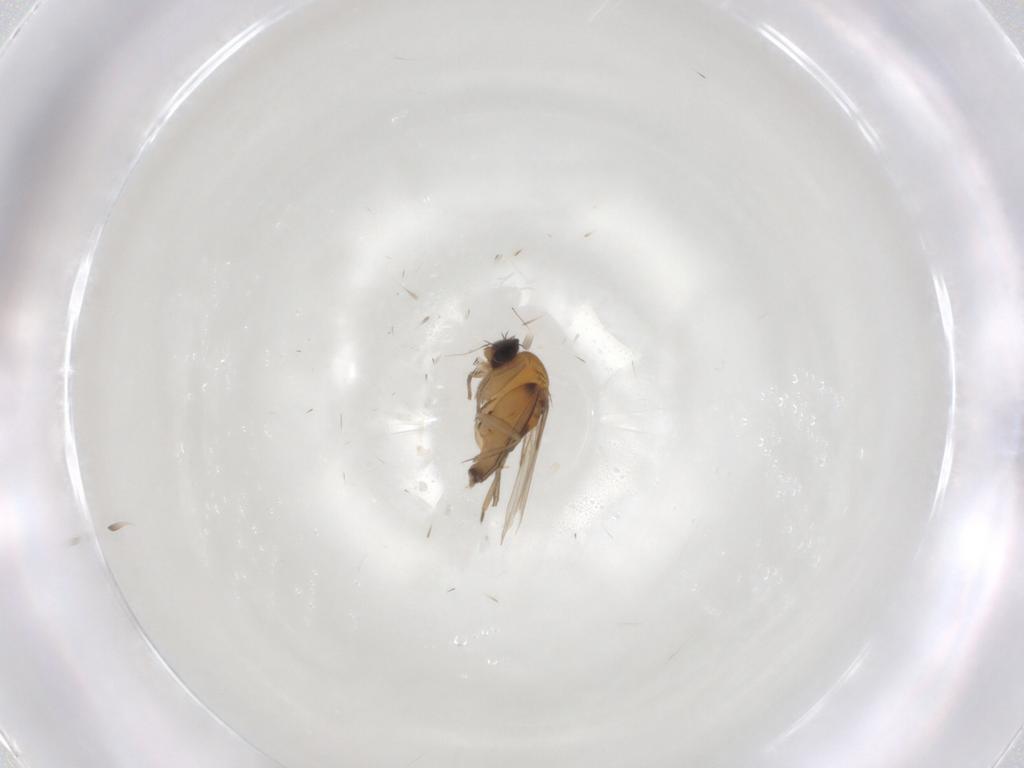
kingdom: Animalia
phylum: Arthropoda
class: Insecta
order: Diptera
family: Phoridae
